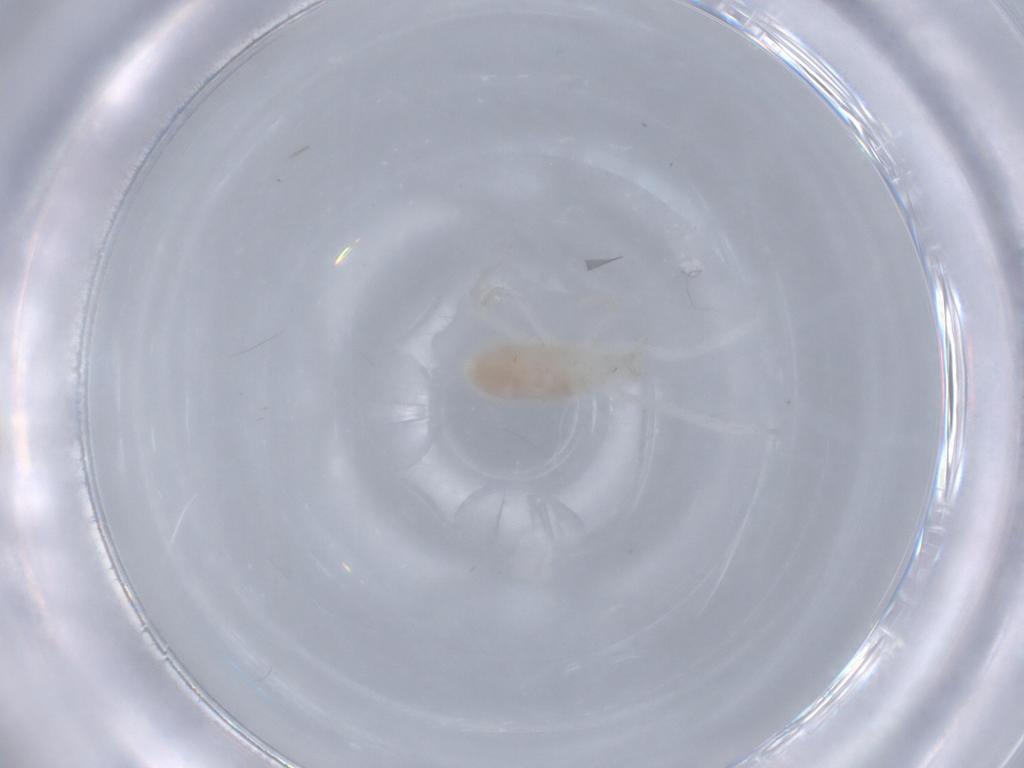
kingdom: Animalia
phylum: Arthropoda
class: Arachnida
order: Trombidiformes
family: Rhagidiidae
